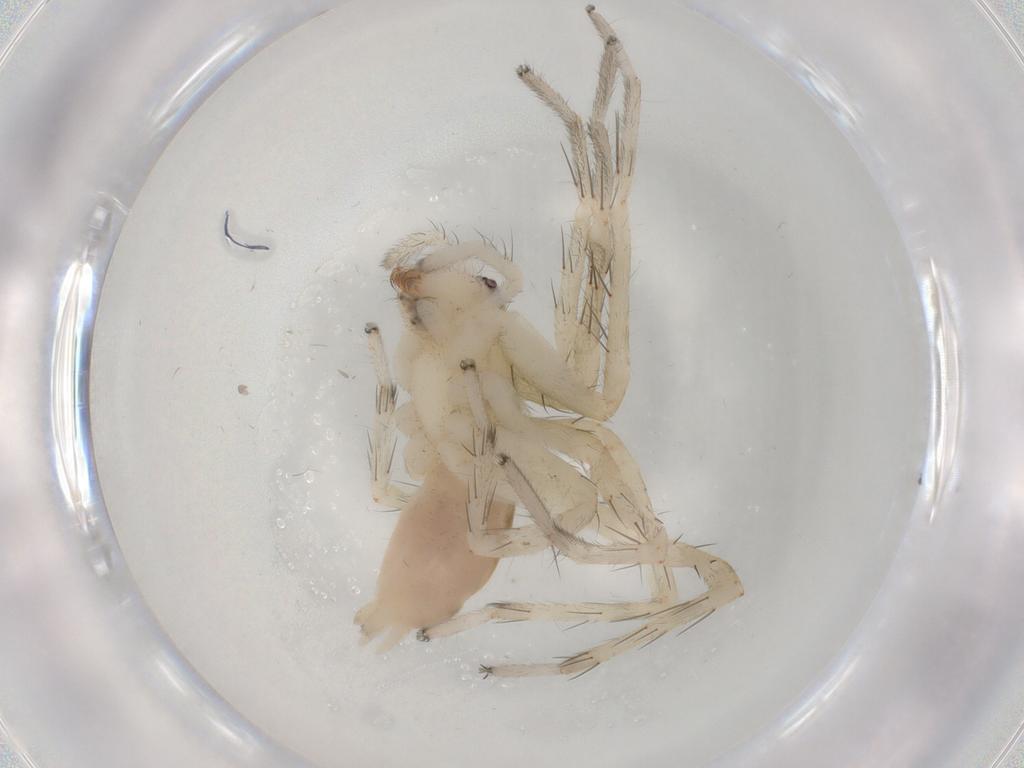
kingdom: Animalia
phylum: Arthropoda
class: Arachnida
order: Araneae
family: Anyphaenidae
